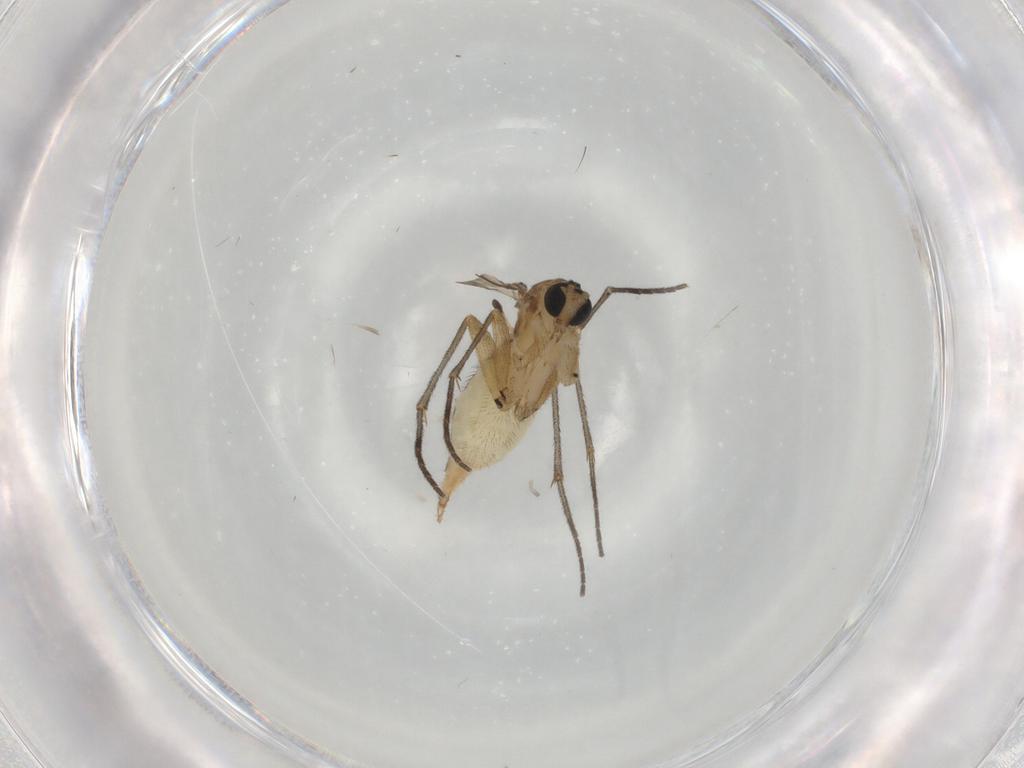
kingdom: Animalia
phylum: Arthropoda
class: Insecta
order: Diptera
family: Sciaridae
